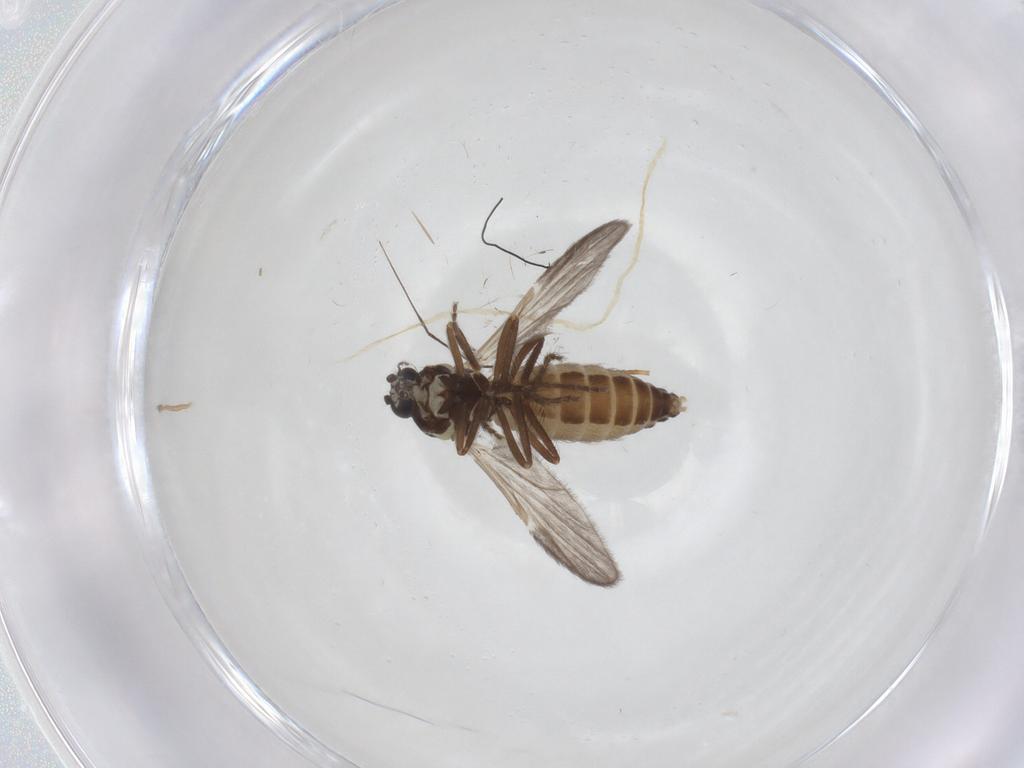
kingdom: Animalia
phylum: Arthropoda
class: Insecta
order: Diptera
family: Ceratopogonidae
